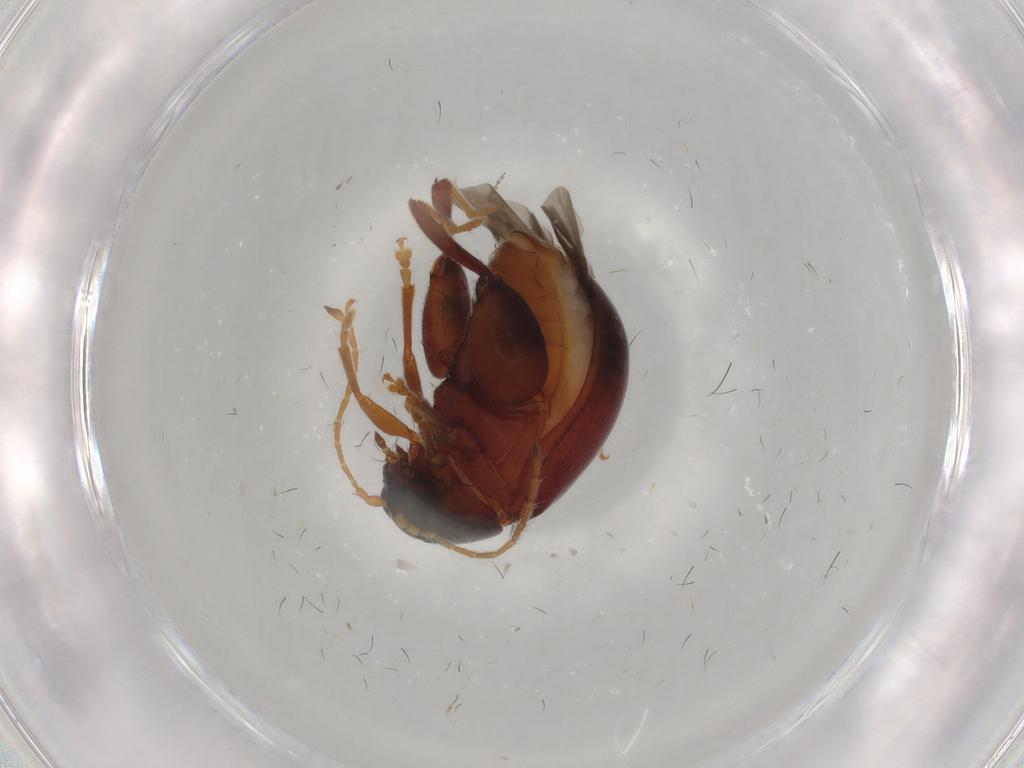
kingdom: Animalia
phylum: Arthropoda
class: Insecta
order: Coleoptera
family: Chrysomelidae
